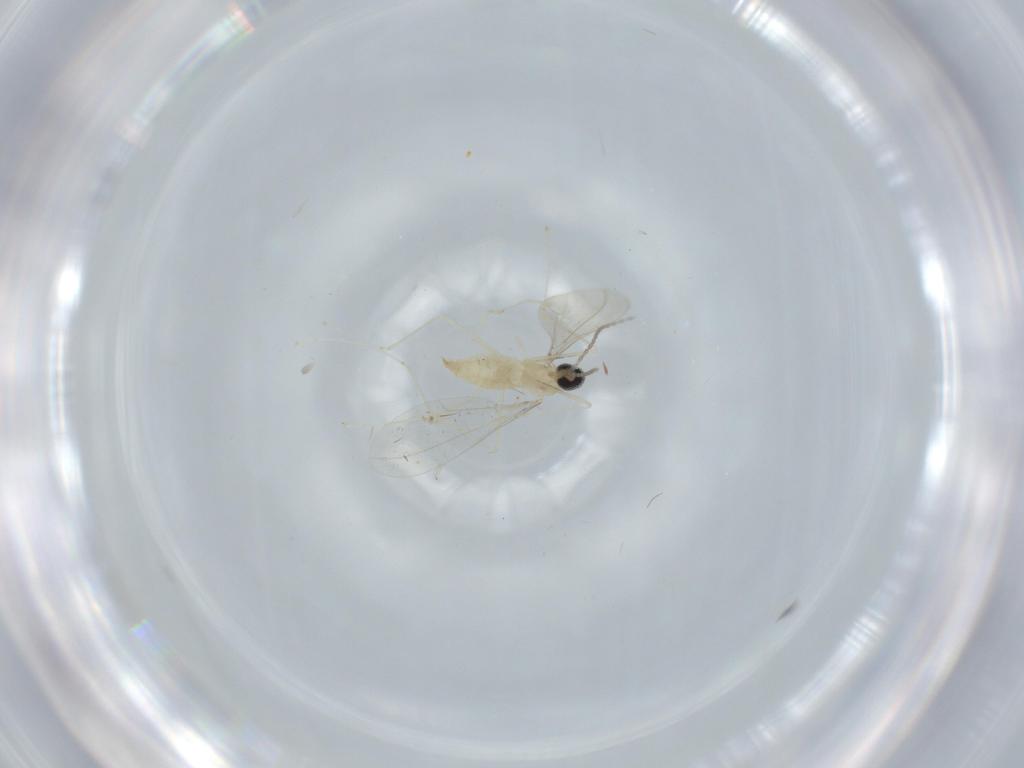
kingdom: Animalia
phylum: Arthropoda
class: Insecta
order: Diptera
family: Cecidomyiidae
